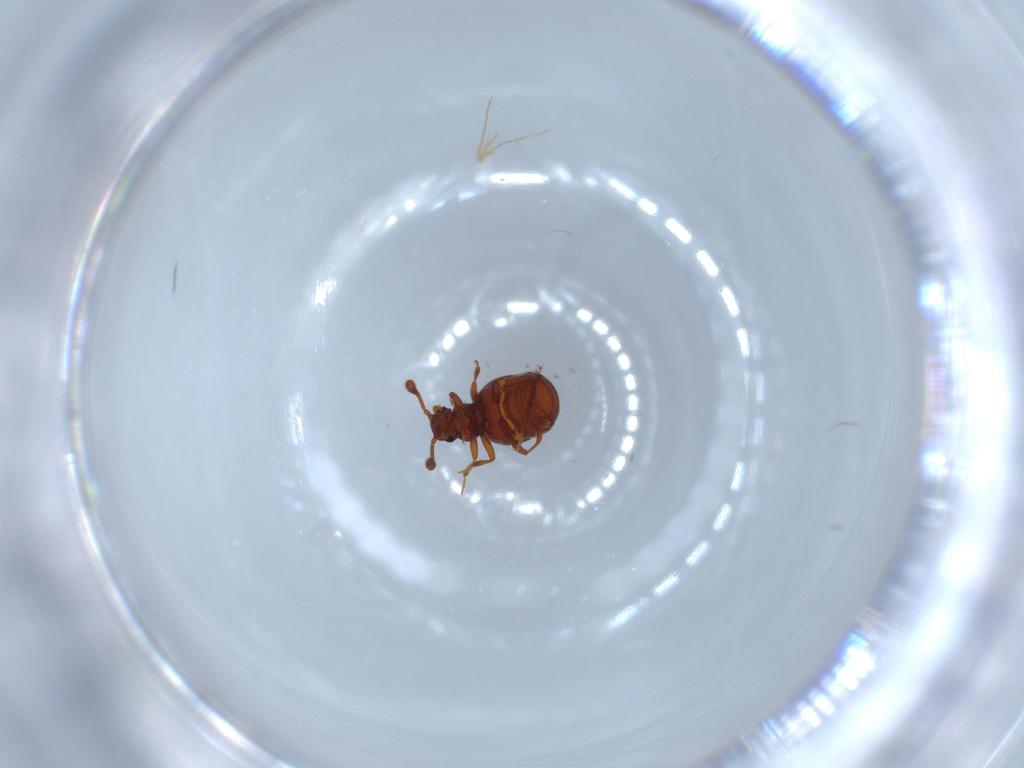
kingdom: Animalia
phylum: Arthropoda
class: Insecta
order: Coleoptera
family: Staphylinidae
